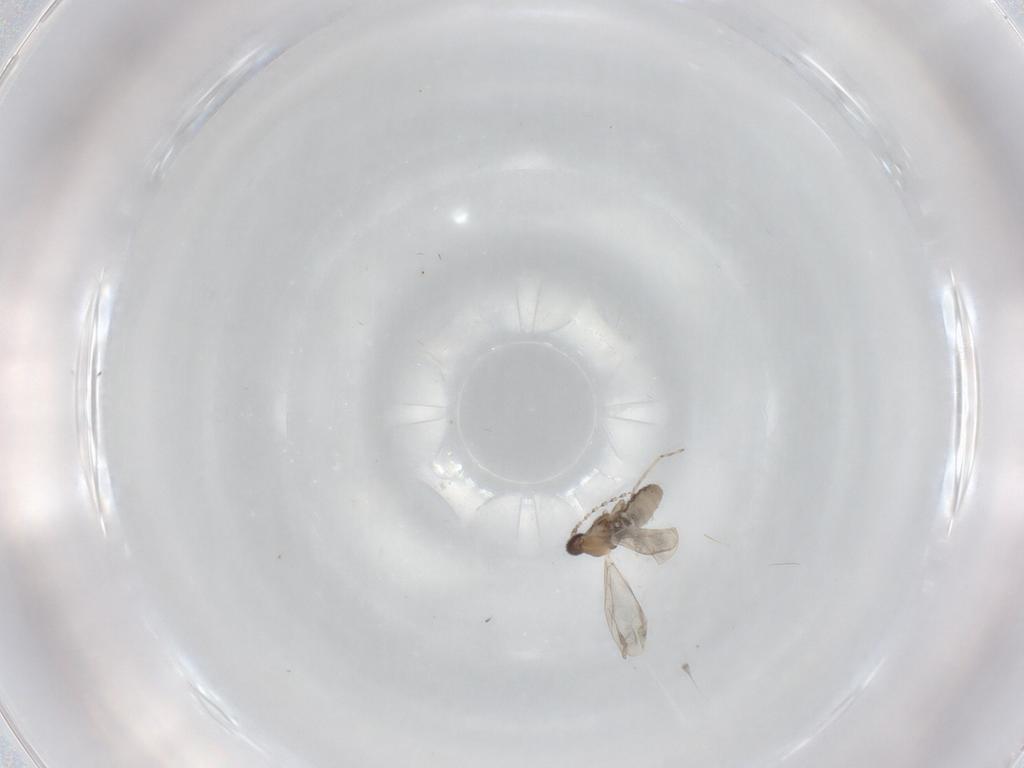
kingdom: Animalia
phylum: Arthropoda
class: Insecta
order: Diptera
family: Cecidomyiidae
